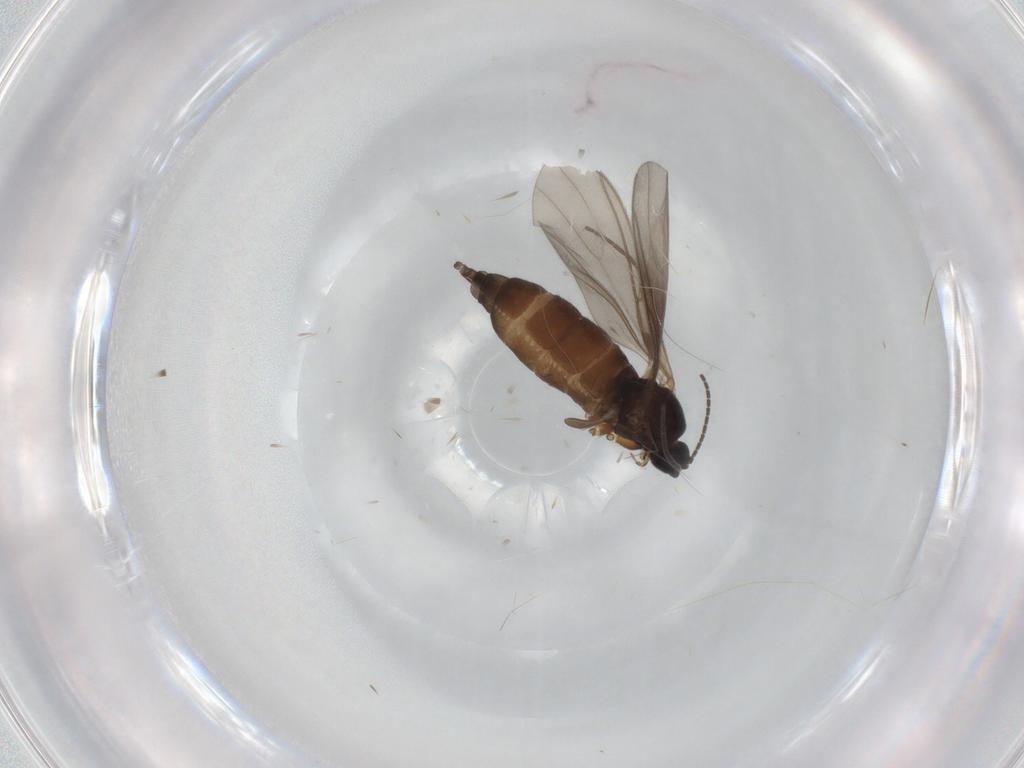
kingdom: Animalia
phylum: Arthropoda
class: Insecta
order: Diptera
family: Sciaridae
